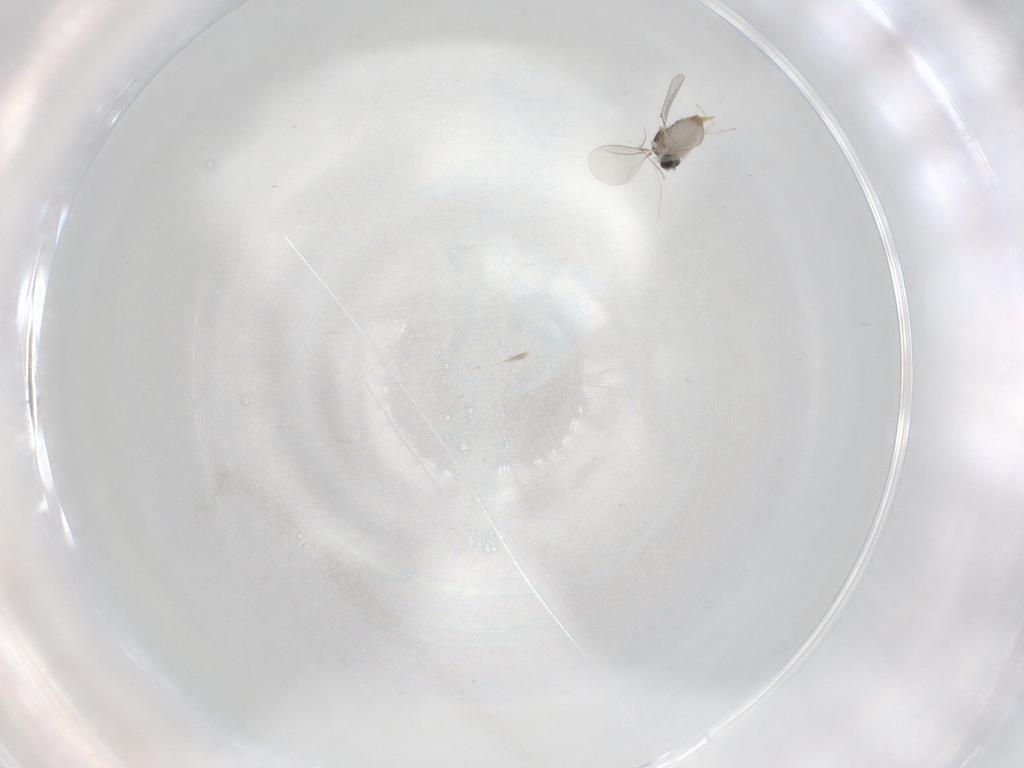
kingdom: Animalia
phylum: Arthropoda
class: Insecta
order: Diptera
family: Cecidomyiidae
